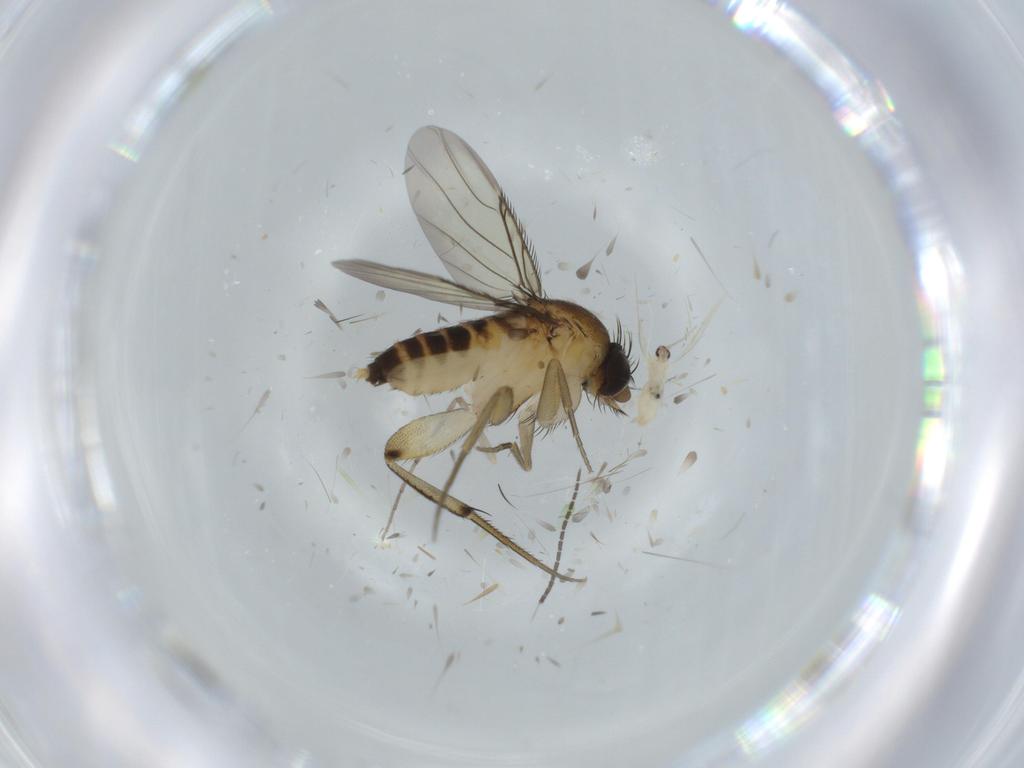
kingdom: Animalia
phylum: Arthropoda
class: Insecta
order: Diptera
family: Phoridae
